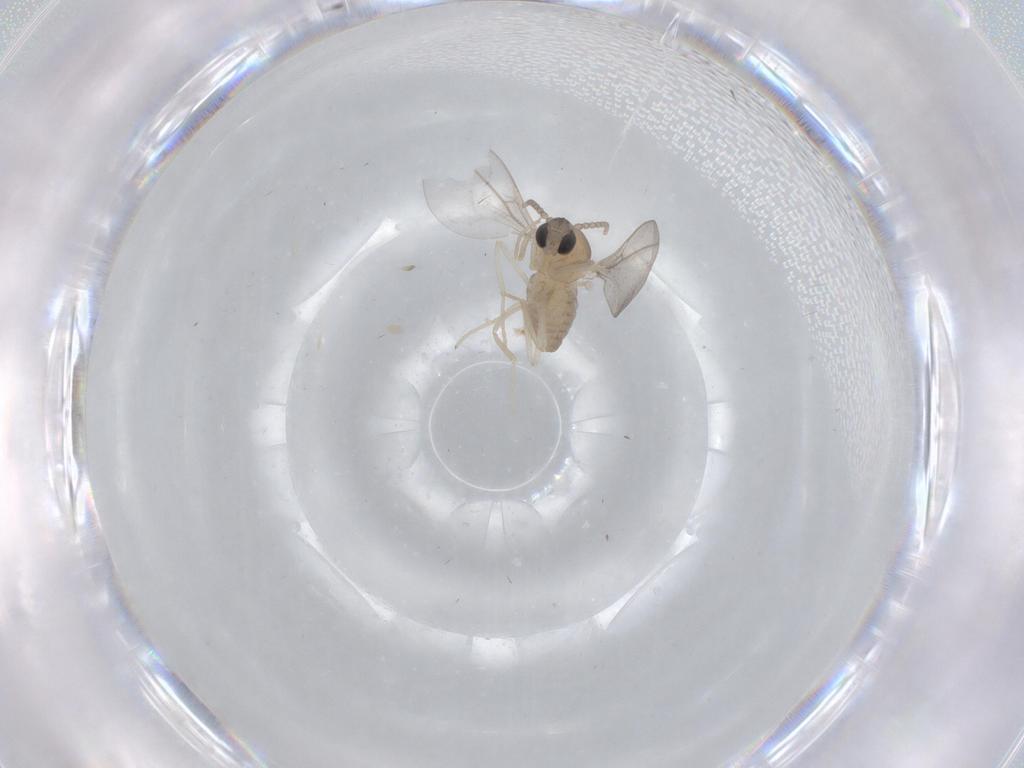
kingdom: Animalia
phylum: Arthropoda
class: Insecta
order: Diptera
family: Cecidomyiidae
